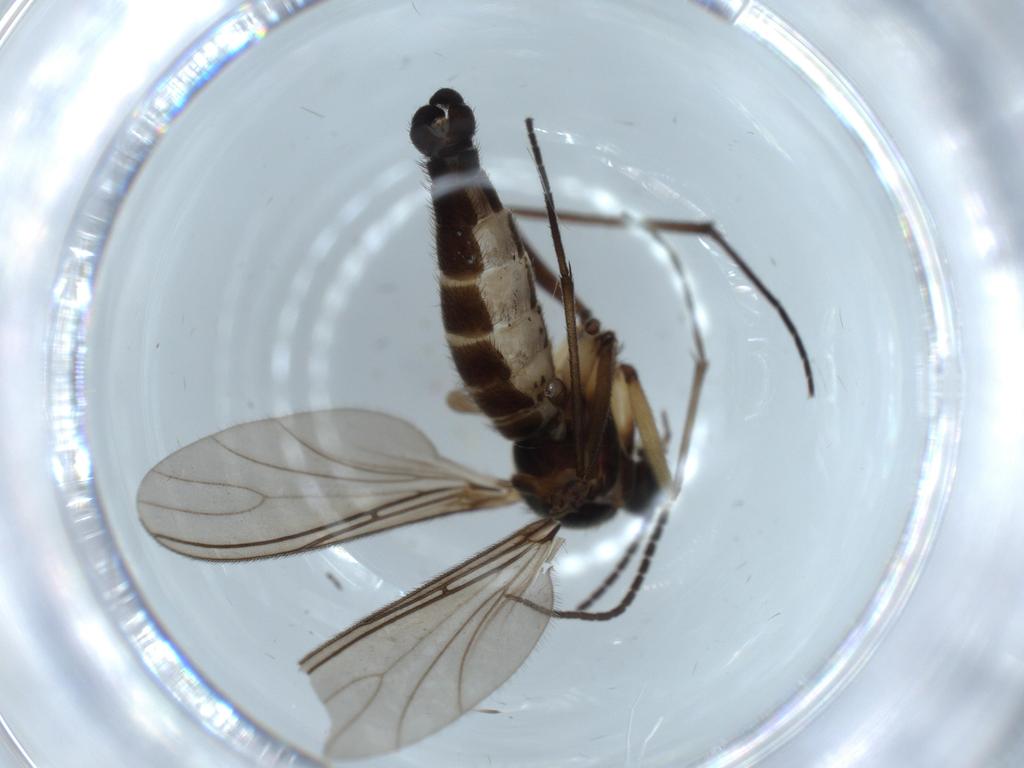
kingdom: Animalia
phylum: Arthropoda
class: Insecta
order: Diptera
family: Sciaridae
